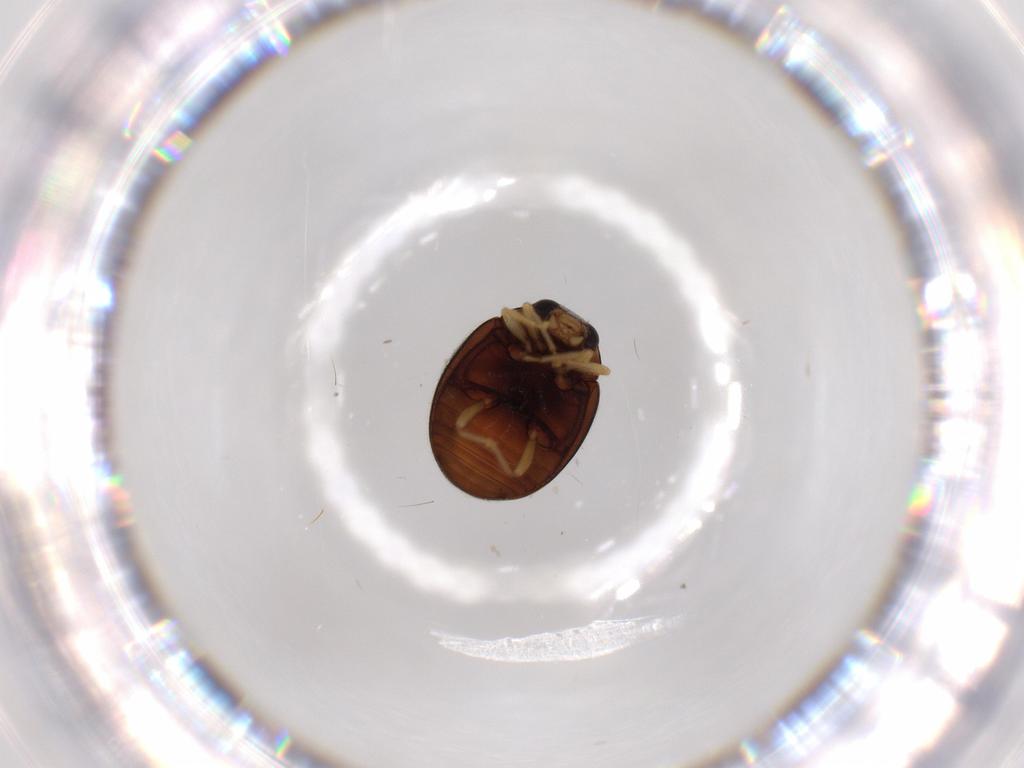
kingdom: Animalia
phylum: Arthropoda
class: Insecta
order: Coleoptera
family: Coccinellidae
